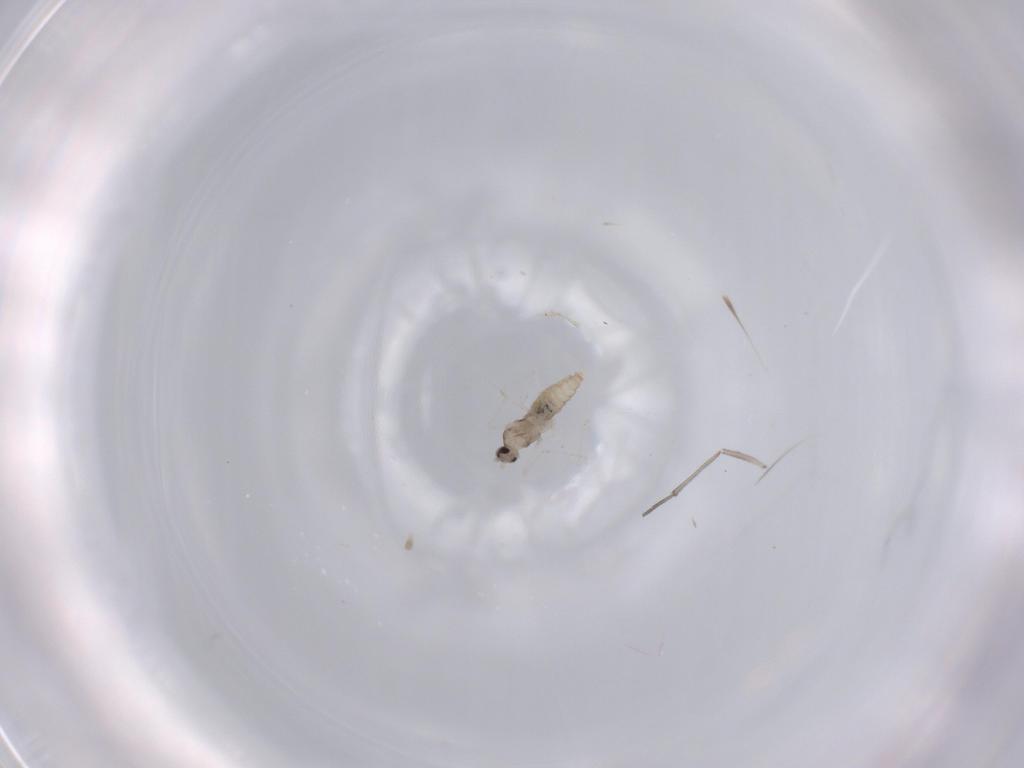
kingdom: Animalia
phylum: Arthropoda
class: Insecta
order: Diptera
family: Cecidomyiidae
